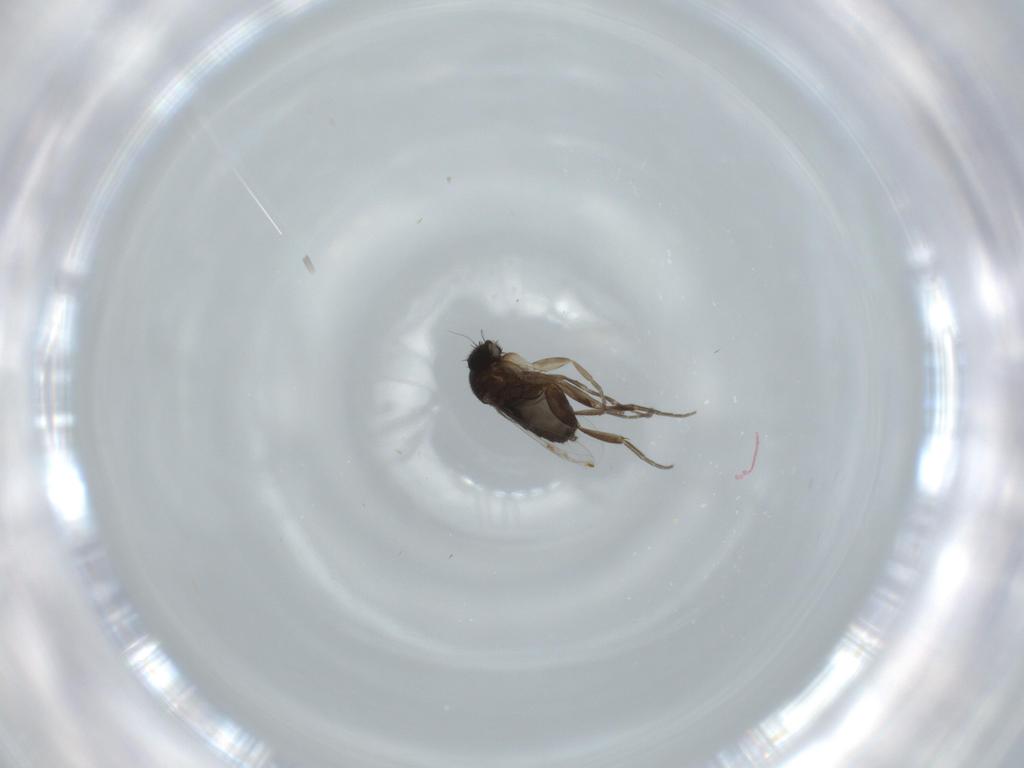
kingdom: Animalia
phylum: Arthropoda
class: Insecta
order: Diptera
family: Phoridae
